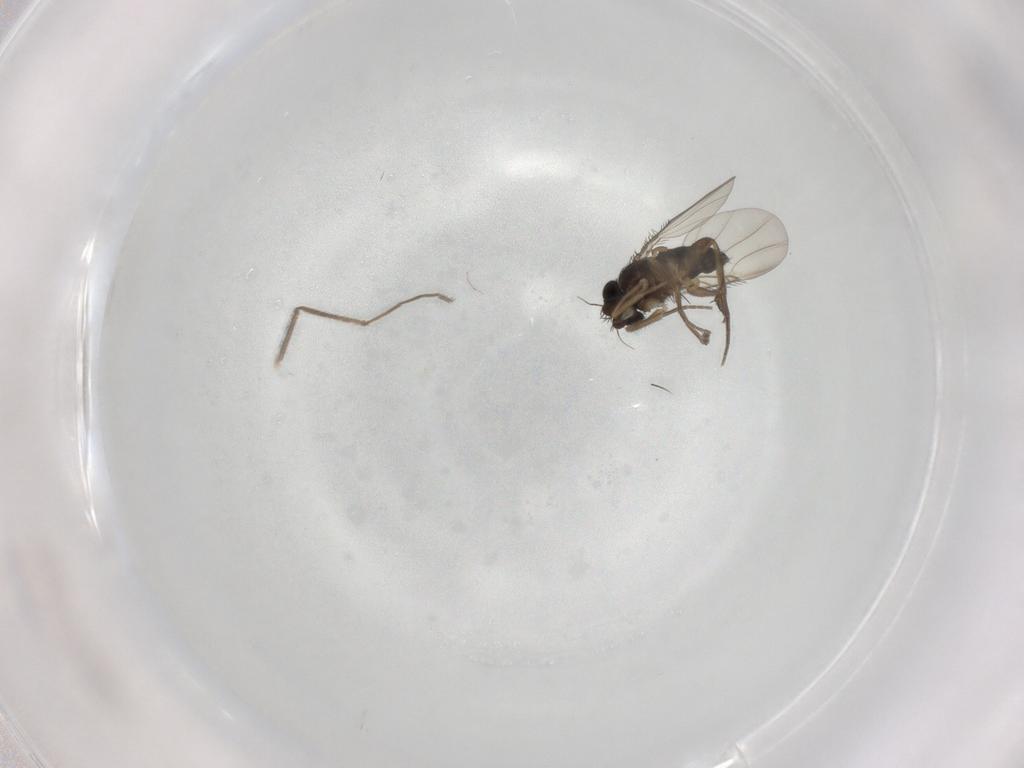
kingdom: Animalia
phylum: Arthropoda
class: Insecta
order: Diptera
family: Phoridae
